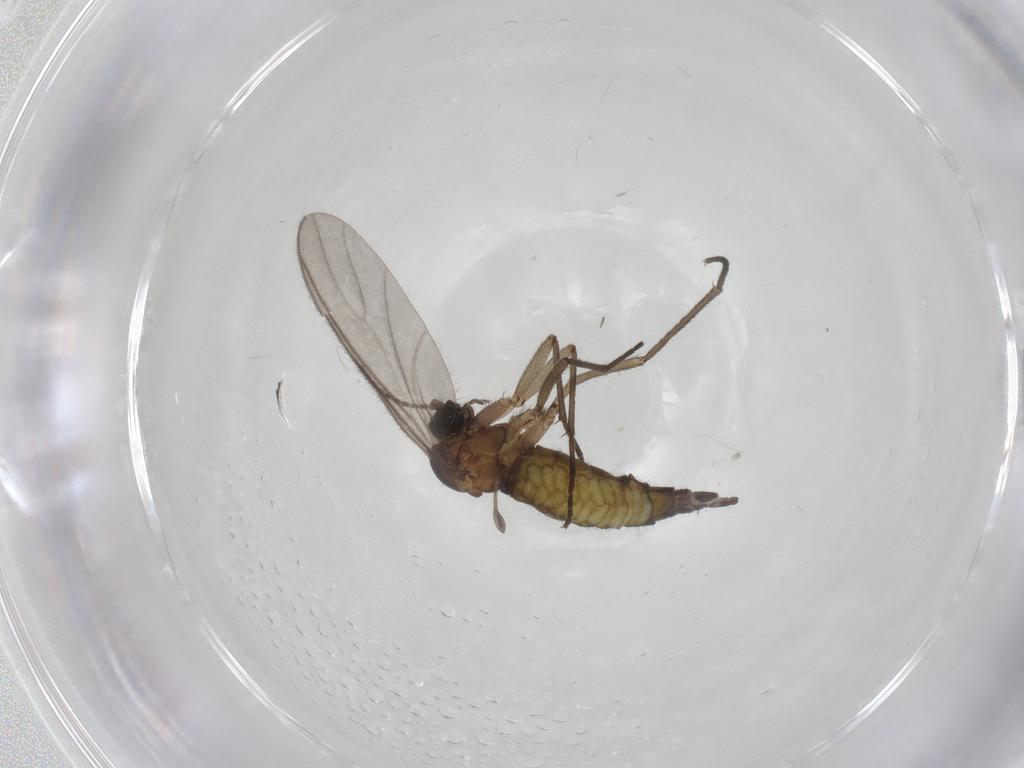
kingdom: Animalia
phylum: Arthropoda
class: Insecta
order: Diptera
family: Sciaridae
